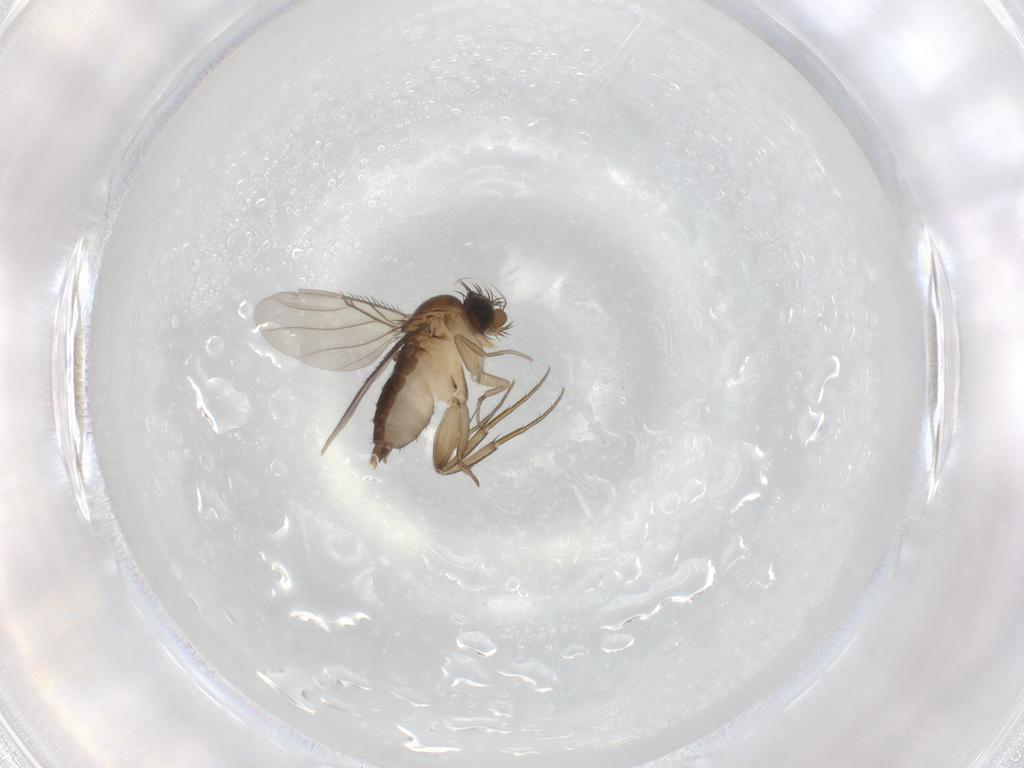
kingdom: Animalia
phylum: Arthropoda
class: Insecta
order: Diptera
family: Phoridae
